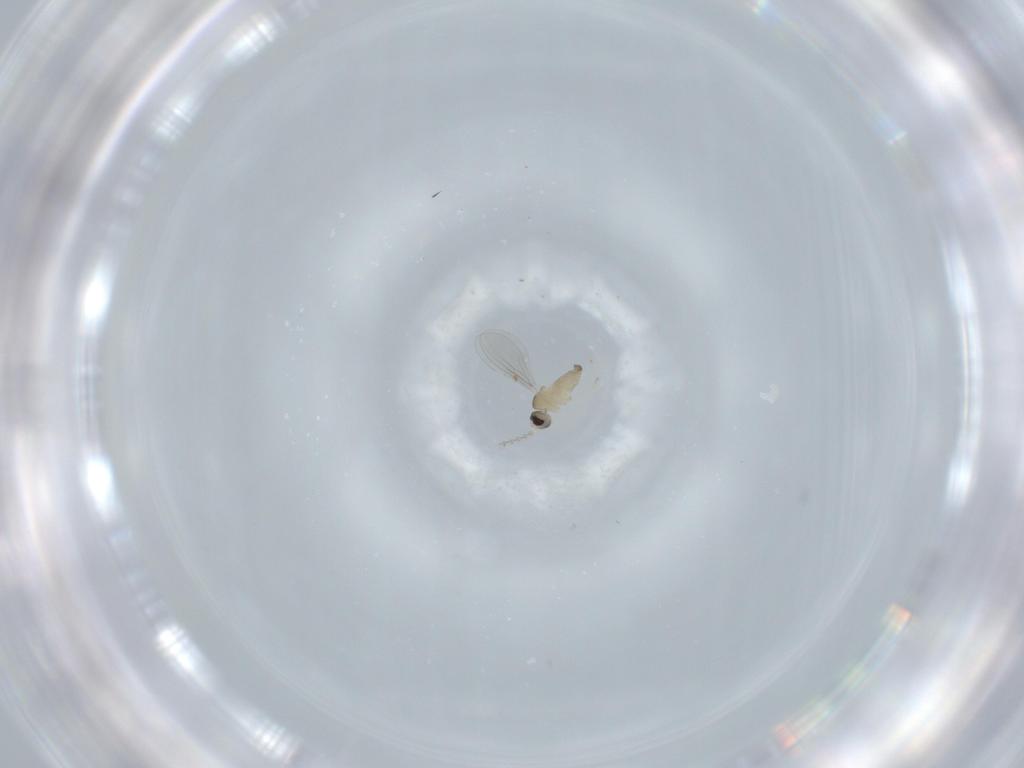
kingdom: Animalia
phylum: Arthropoda
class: Insecta
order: Diptera
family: Cecidomyiidae
